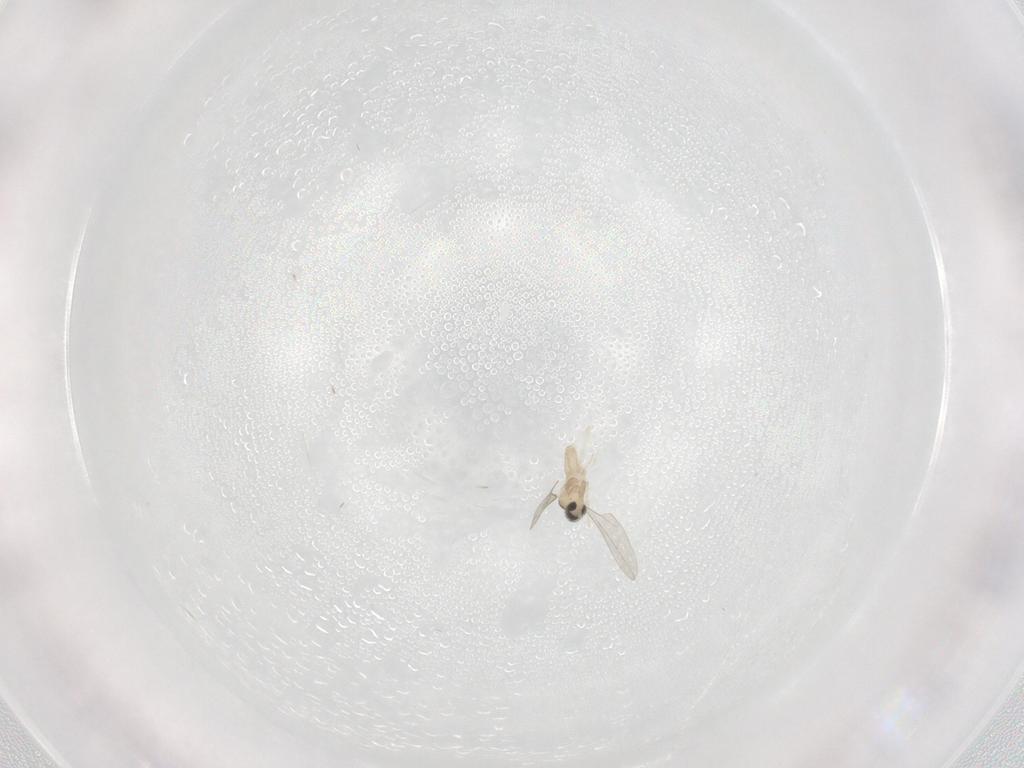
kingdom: Animalia
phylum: Arthropoda
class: Insecta
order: Diptera
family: Cecidomyiidae
